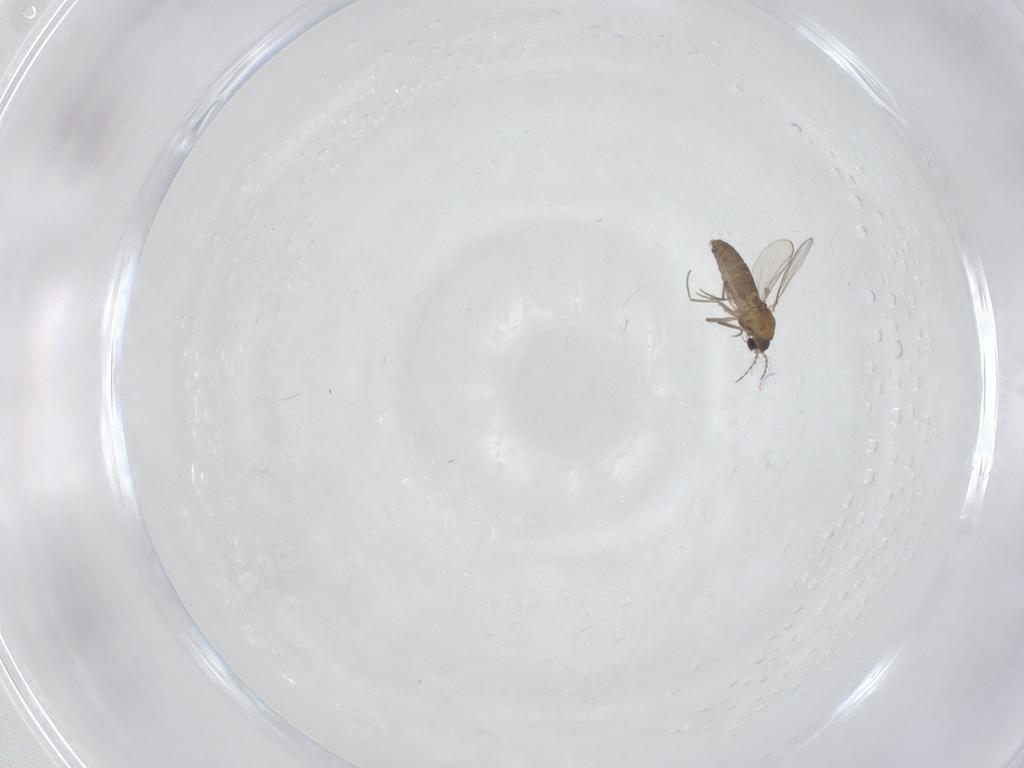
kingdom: Animalia
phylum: Arthropoda
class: Insecta
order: Diptera
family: Chironomidae
